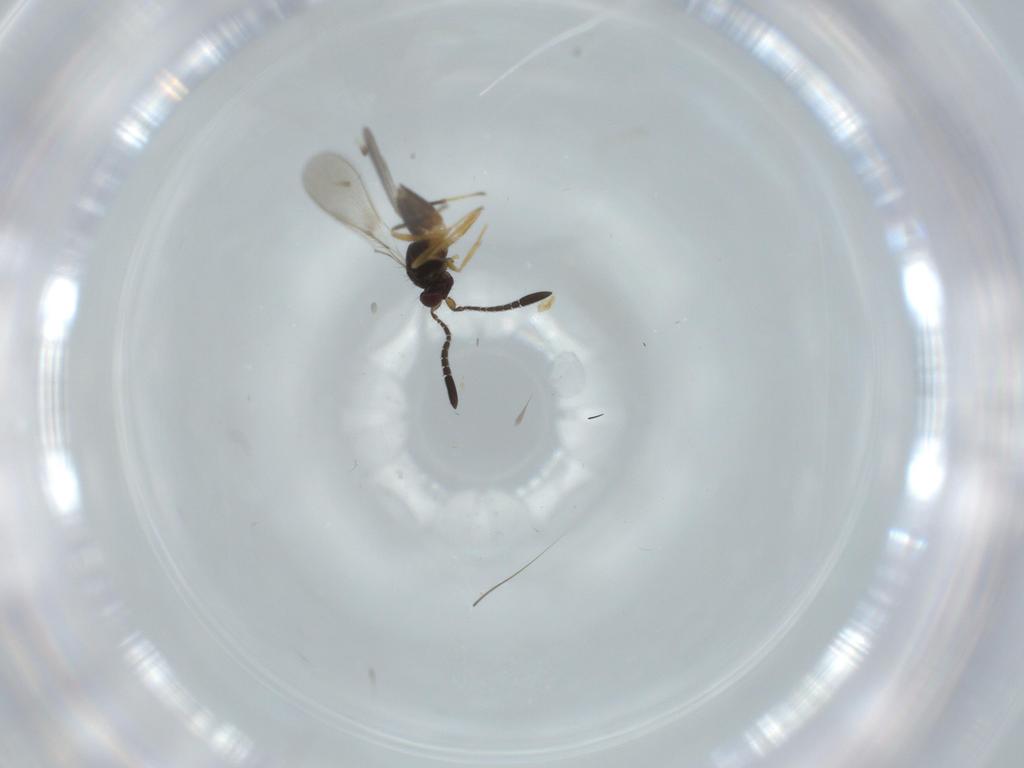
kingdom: Animalia
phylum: Arthropoda
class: Insecta
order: Hymenoptera
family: Platygastridae
